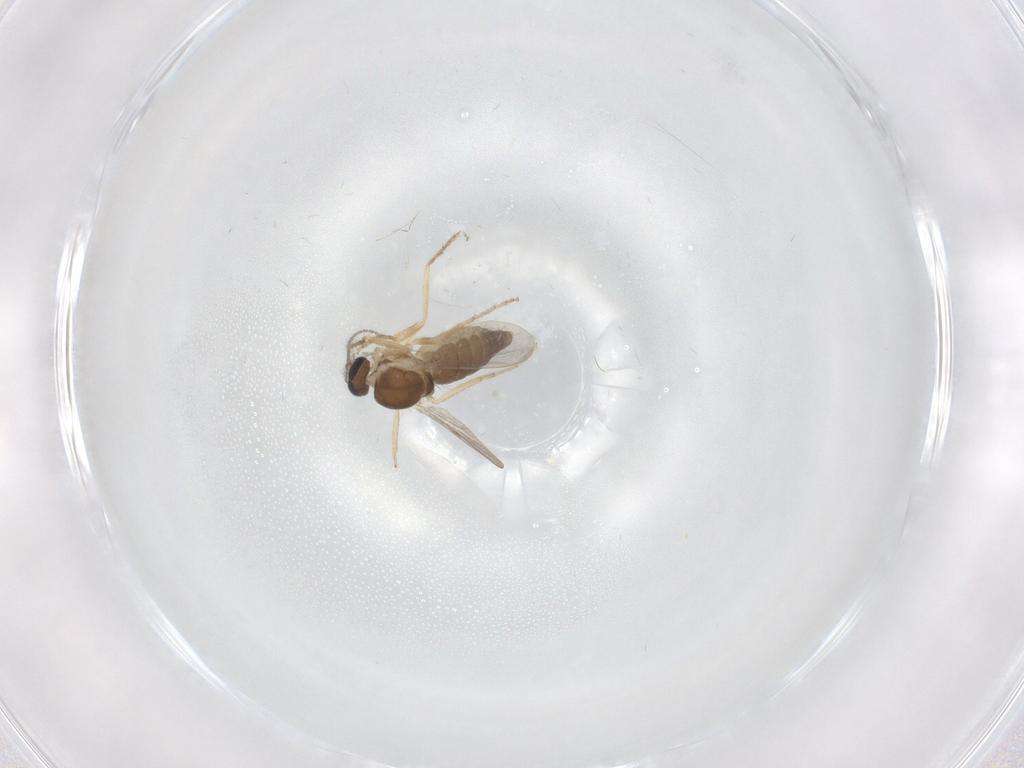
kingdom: Animalia
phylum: Arthropoda
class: Insecta
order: Diptera
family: Ceratopogonidae
